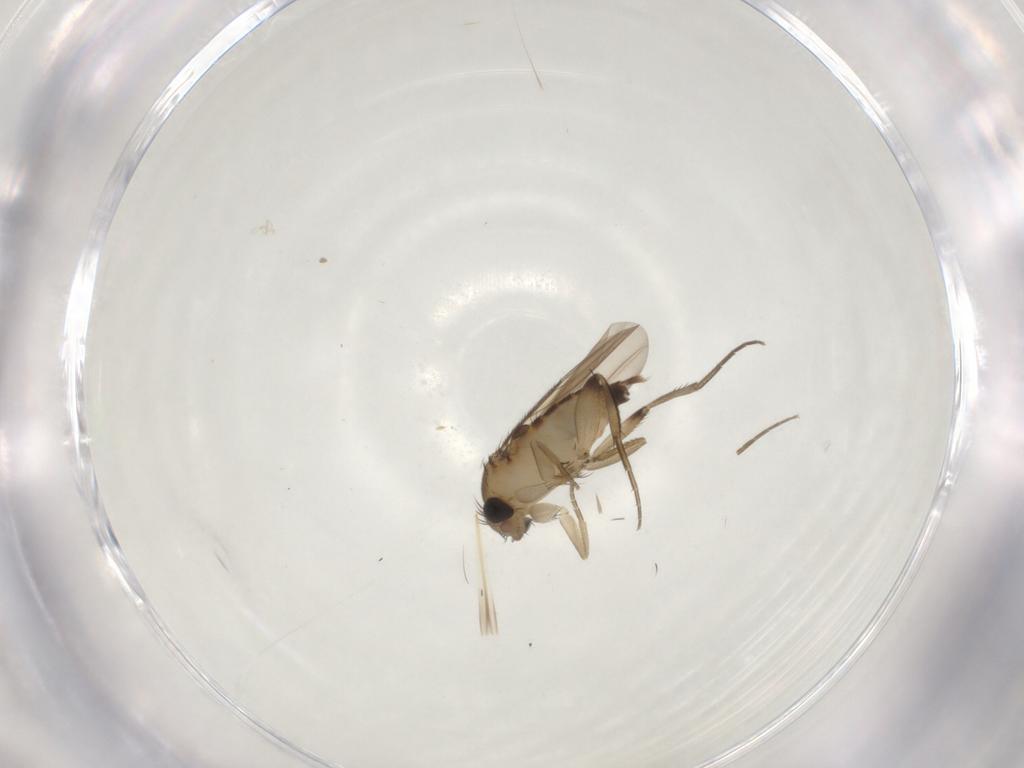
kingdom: Animalia
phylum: Arthropoda
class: Insecta
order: Diptera
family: Phoridae
